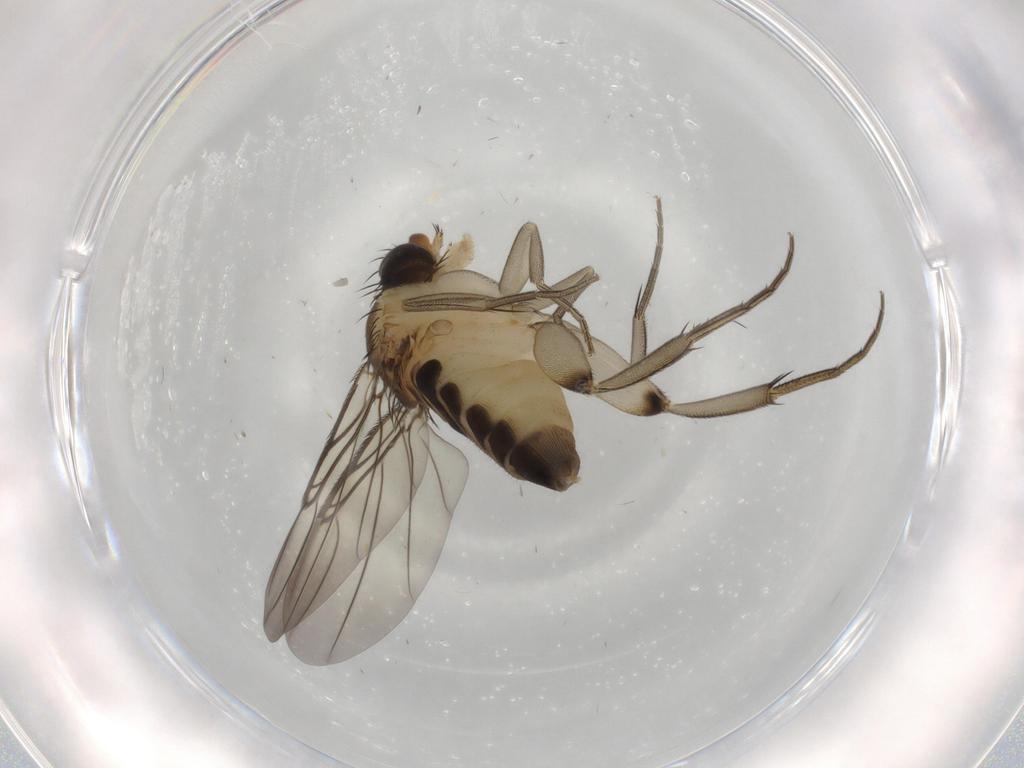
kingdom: Animalia
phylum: Arthropoda
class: Insecta
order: Diptera
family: Phoridae
